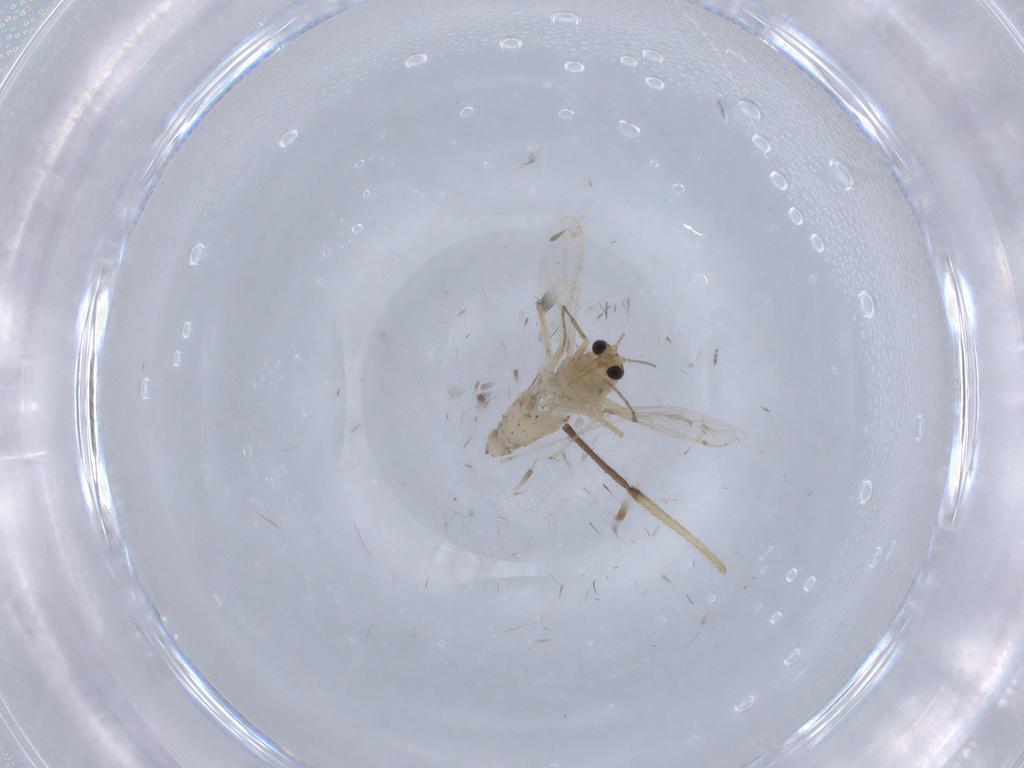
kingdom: Animalia
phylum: Arthropoda
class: Insecta
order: Diptera
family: Chironomidae
